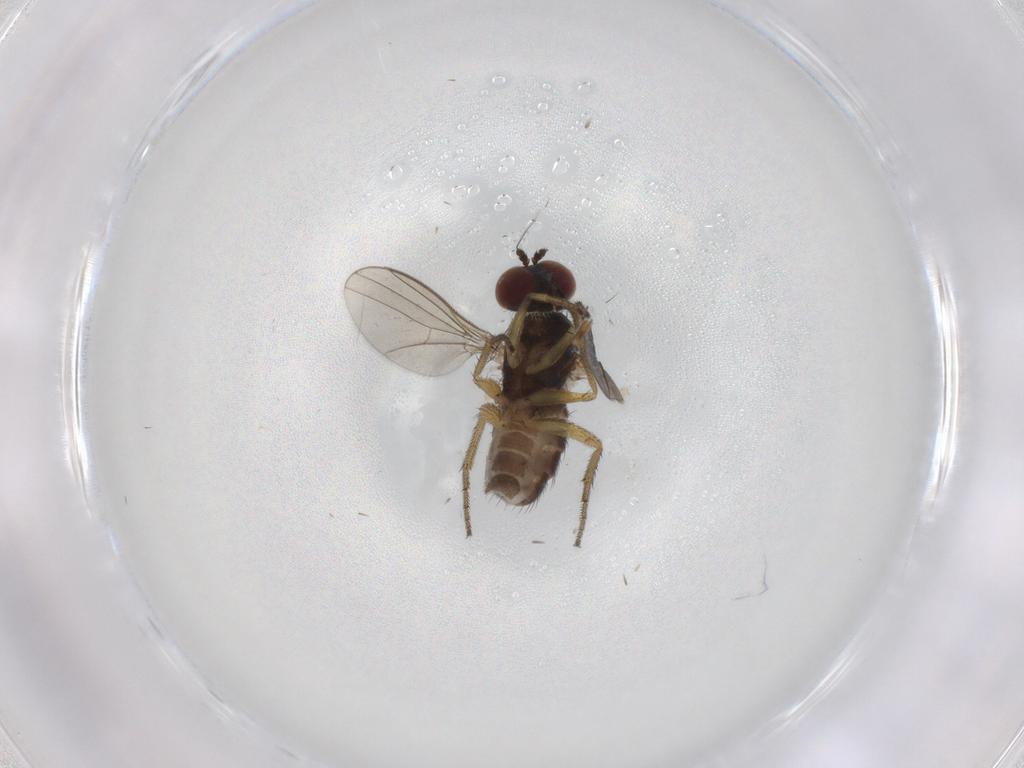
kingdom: Animalia
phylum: Arthropoda
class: Insecta
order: Diptera
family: Dolichopodidae
